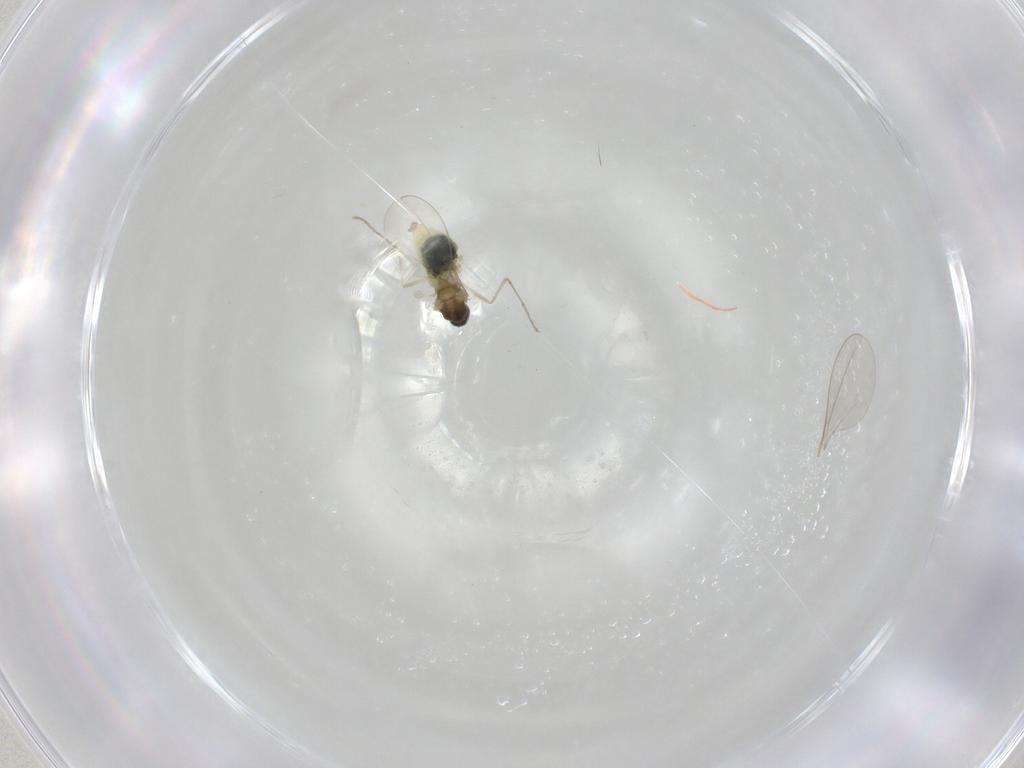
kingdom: Animalia
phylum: Arthropoda
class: Insecta
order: Diptera
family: Cecidomyiidae
